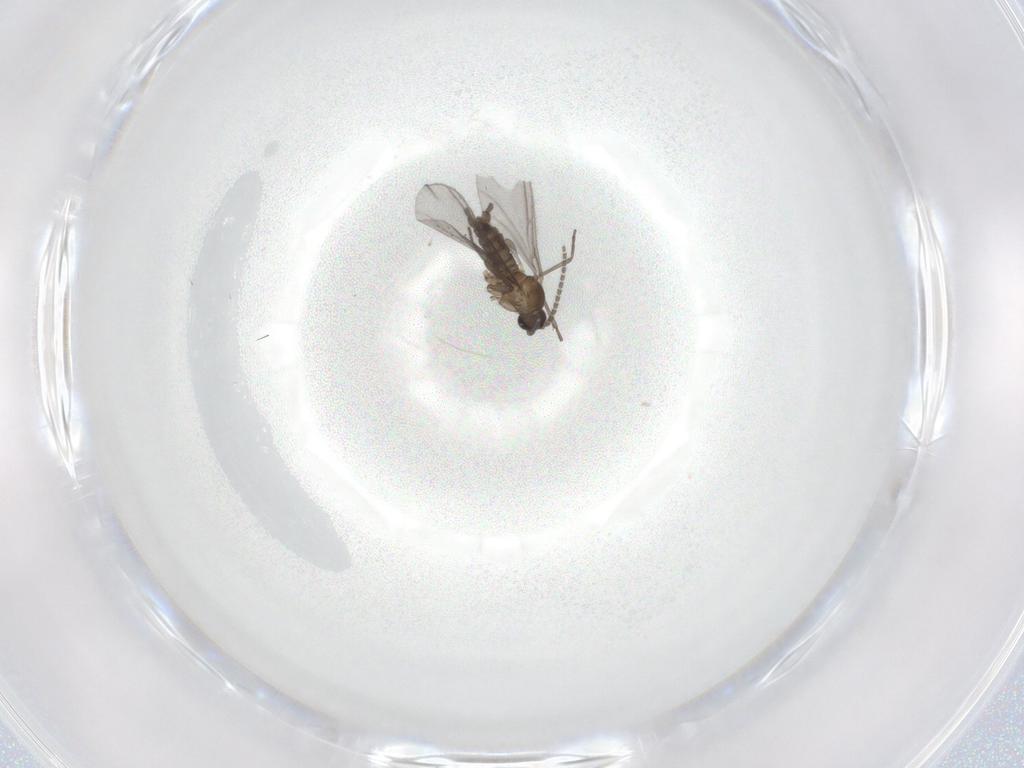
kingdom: Animalia
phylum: Arthropoda
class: Insecta
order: Diptera
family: Sciaridae
